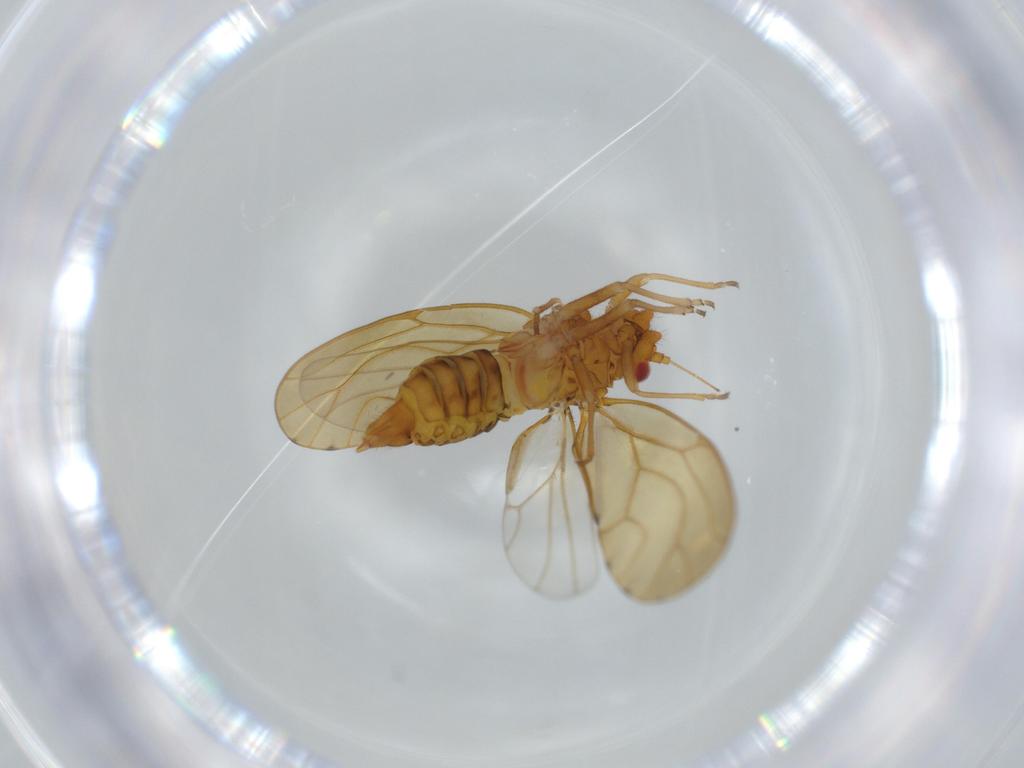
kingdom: Animalia
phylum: Arthropoda
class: Insecta
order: Hemiptera
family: Psylloidea_incertae_sedis
